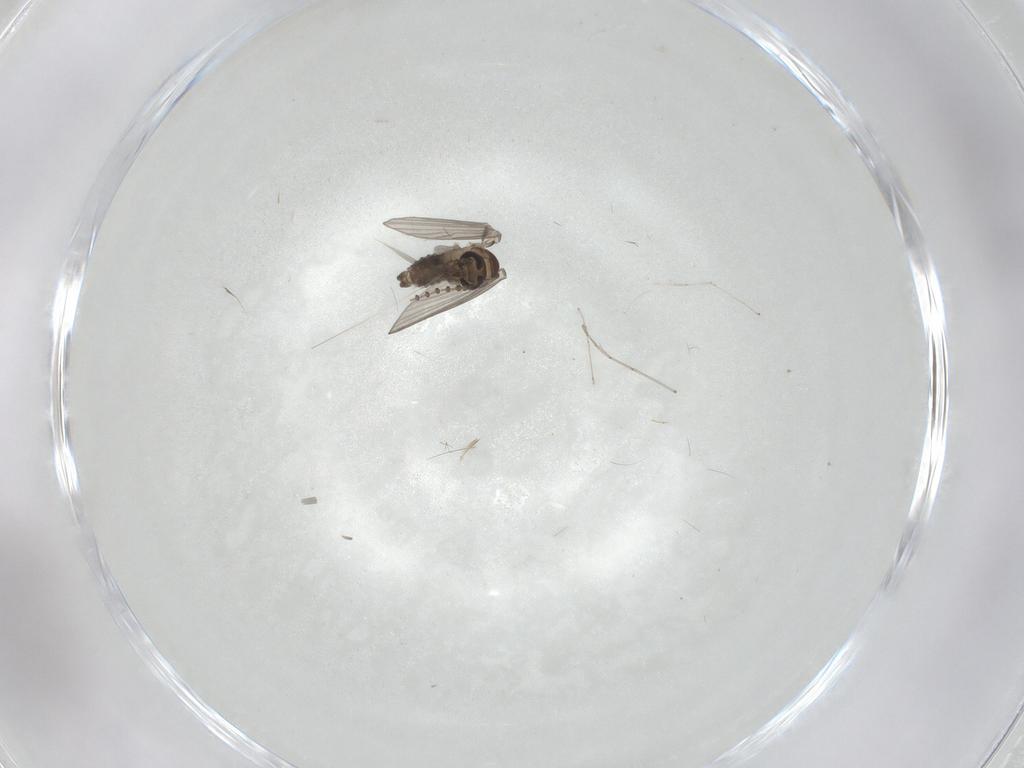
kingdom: Animalia
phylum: Arthropoda
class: Insecta
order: Diptera
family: Psychodidae
